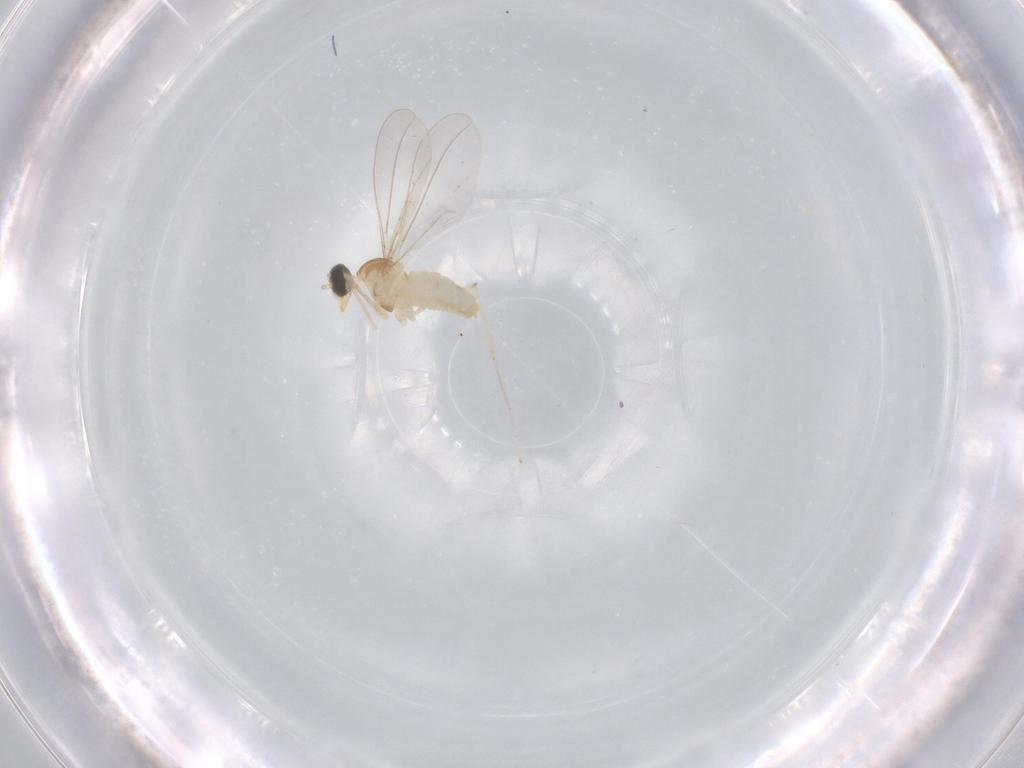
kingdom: Animalia
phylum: Arthropoda
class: Insecta
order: Diptera
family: Cecidomyiidae
